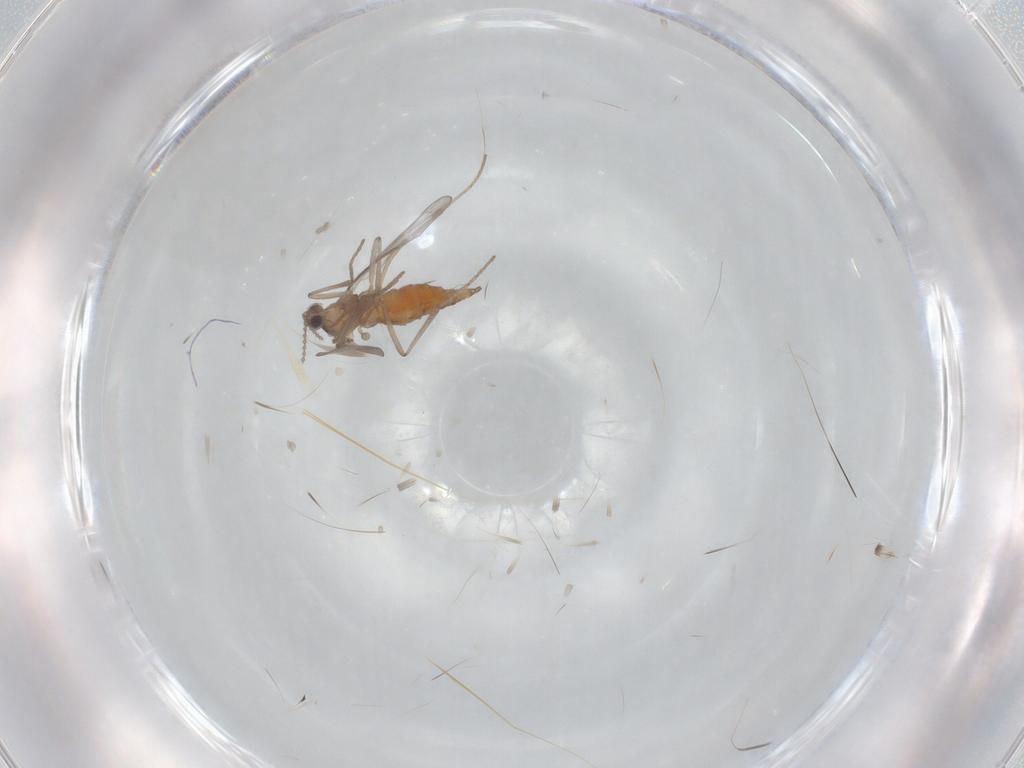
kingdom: Animalia
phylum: Arthropoda
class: Insecta
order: Diptera
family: Cecidomyiidae
